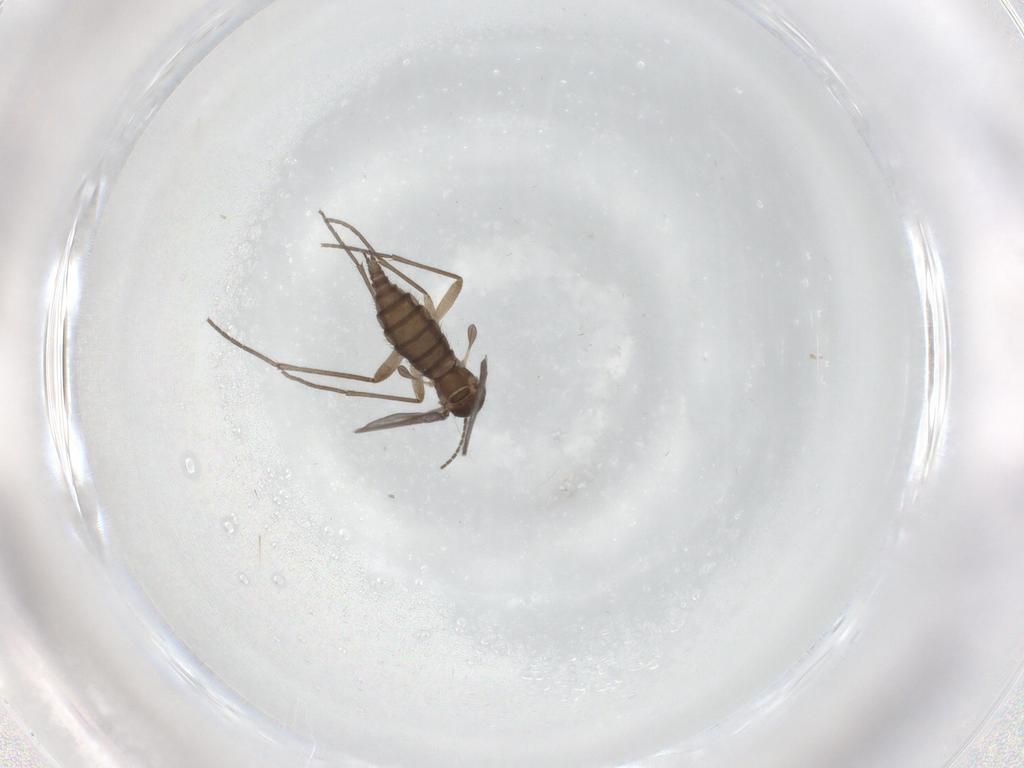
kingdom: Animalia
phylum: Arthropoda
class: Insecta
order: Diptera
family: Sciaridae
